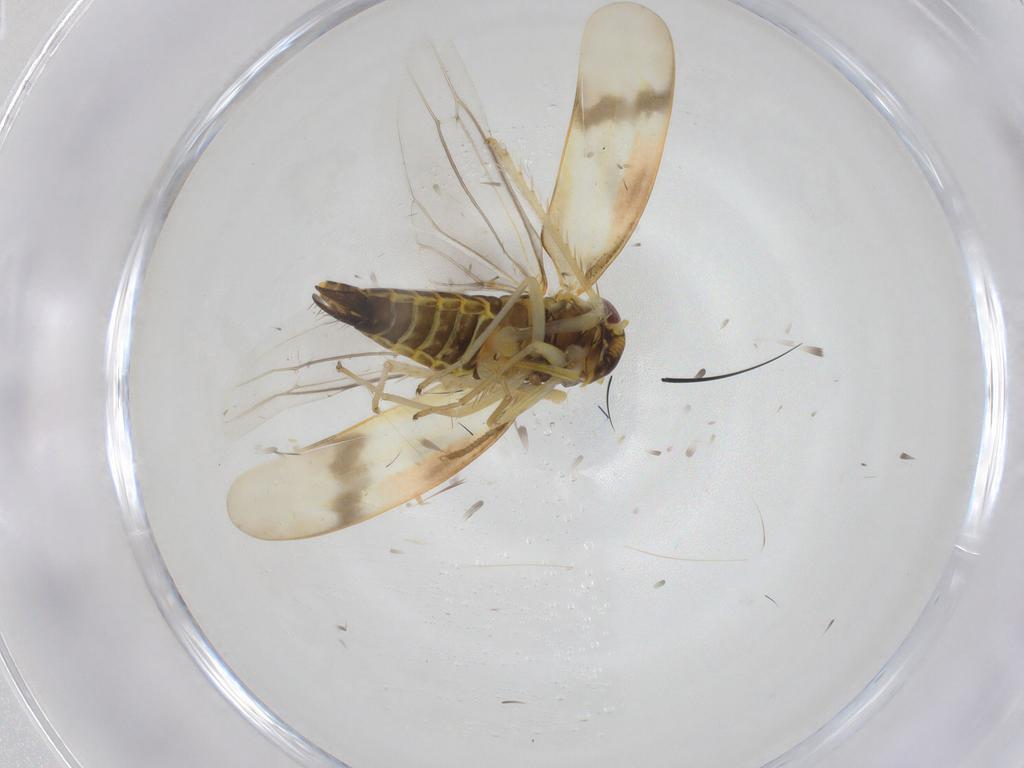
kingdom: Animalia
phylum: Arthropoda
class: Insecta
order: Hemiptera
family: Cicadellidae
